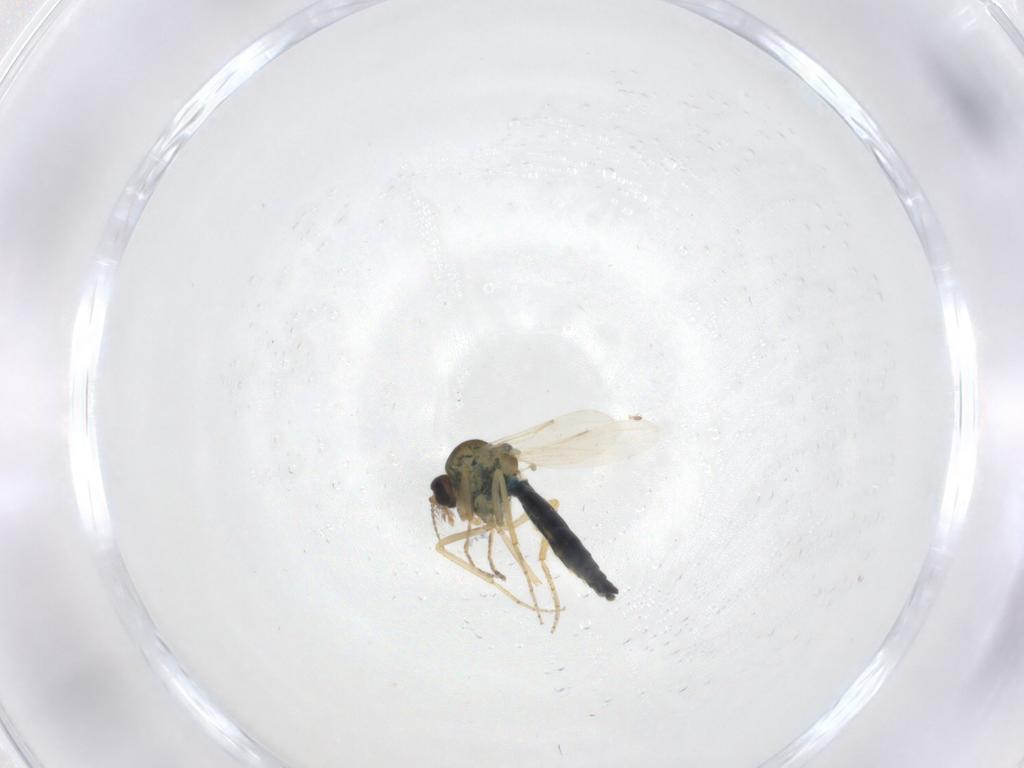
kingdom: Animalia
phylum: Arthropoda
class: Insecta
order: Diptera
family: Ceratopogonidae
